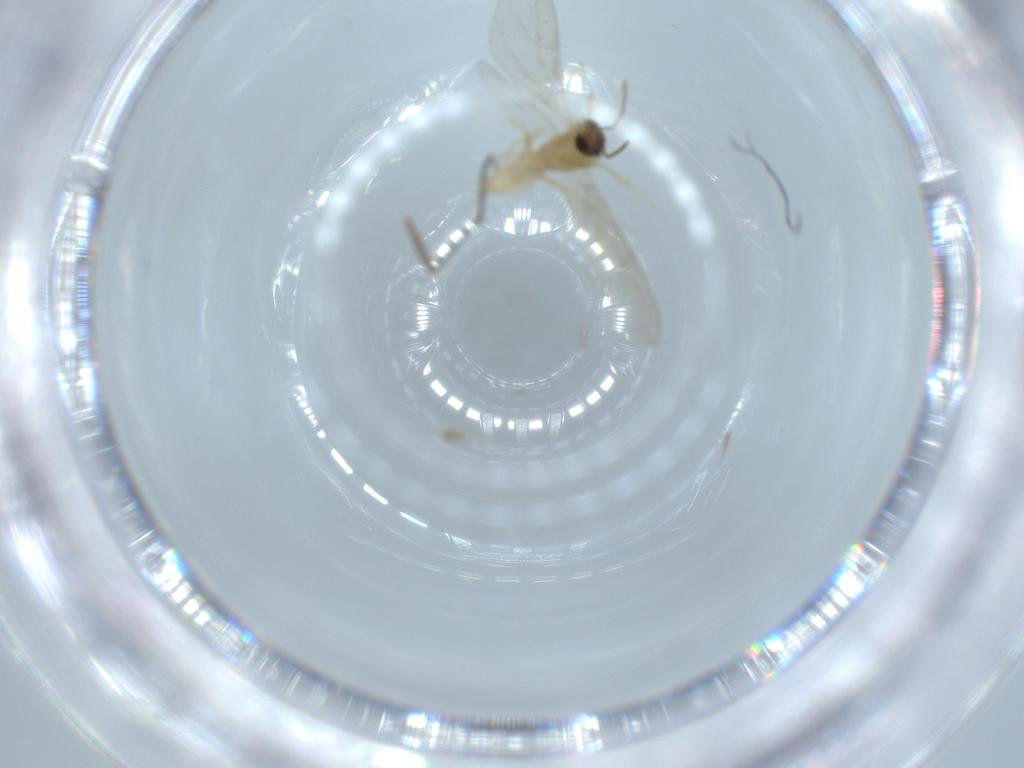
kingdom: Animalia
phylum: Arthropoda
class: Insecta
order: Diptera
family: Sciaridae
